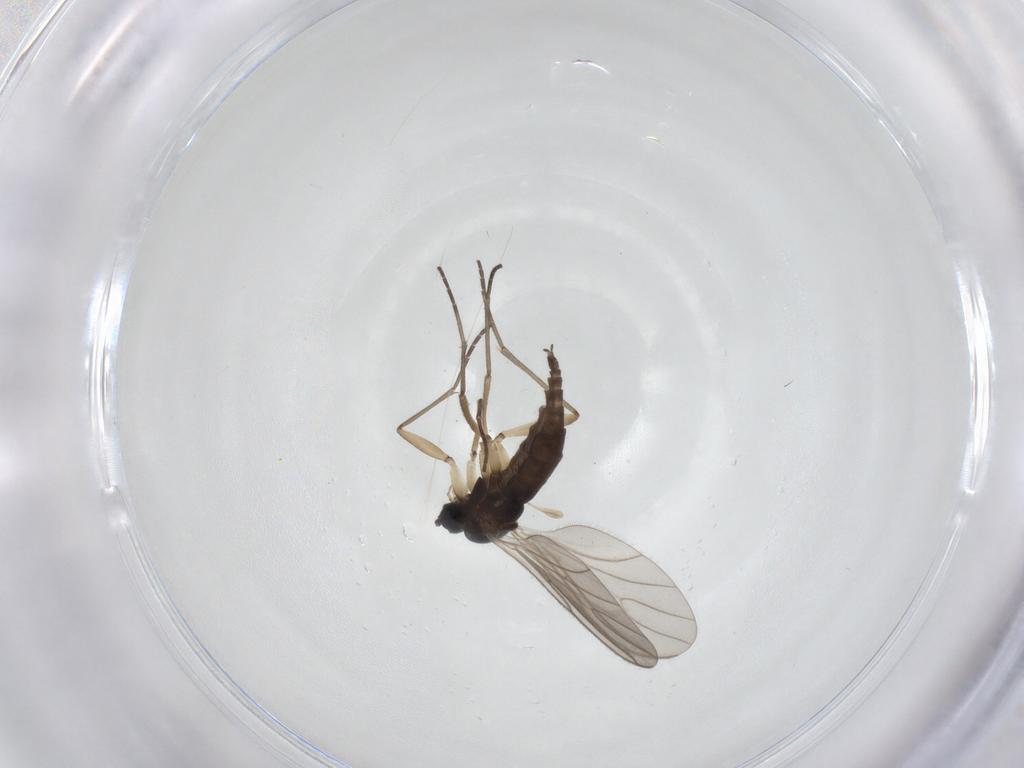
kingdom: Animalia
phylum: Arthropoda
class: Insecta
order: Diptera
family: Sciaridae
